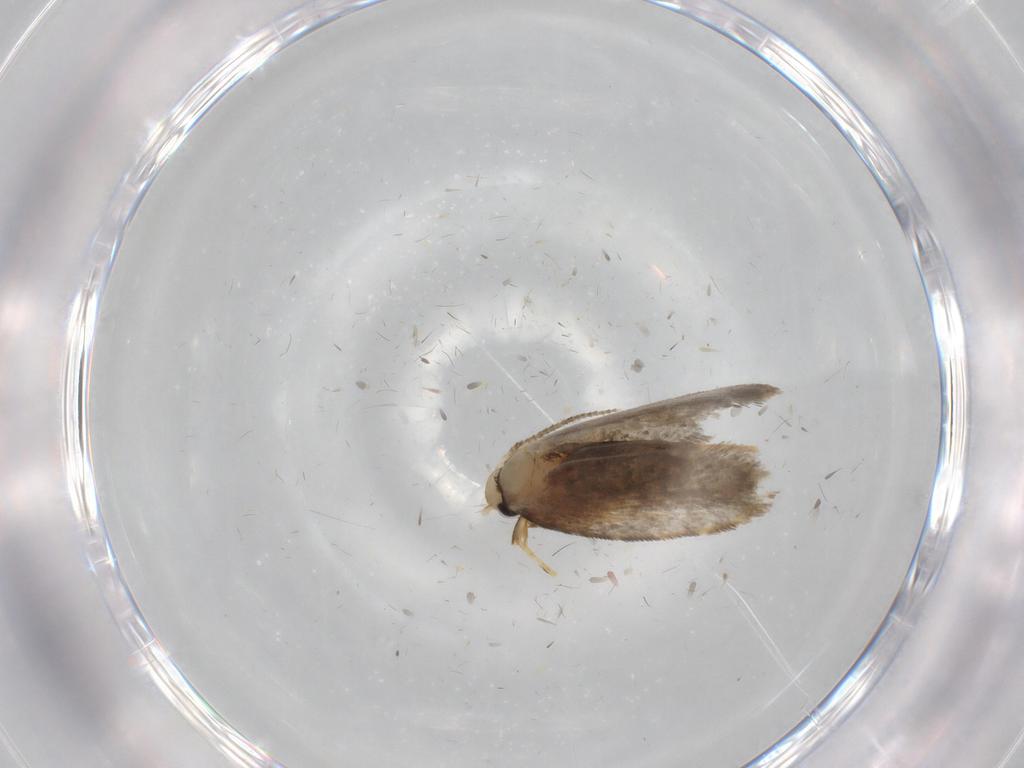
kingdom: Animalia
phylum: Arthropoda
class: Insecta
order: Lepidoptera
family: Psychidae
